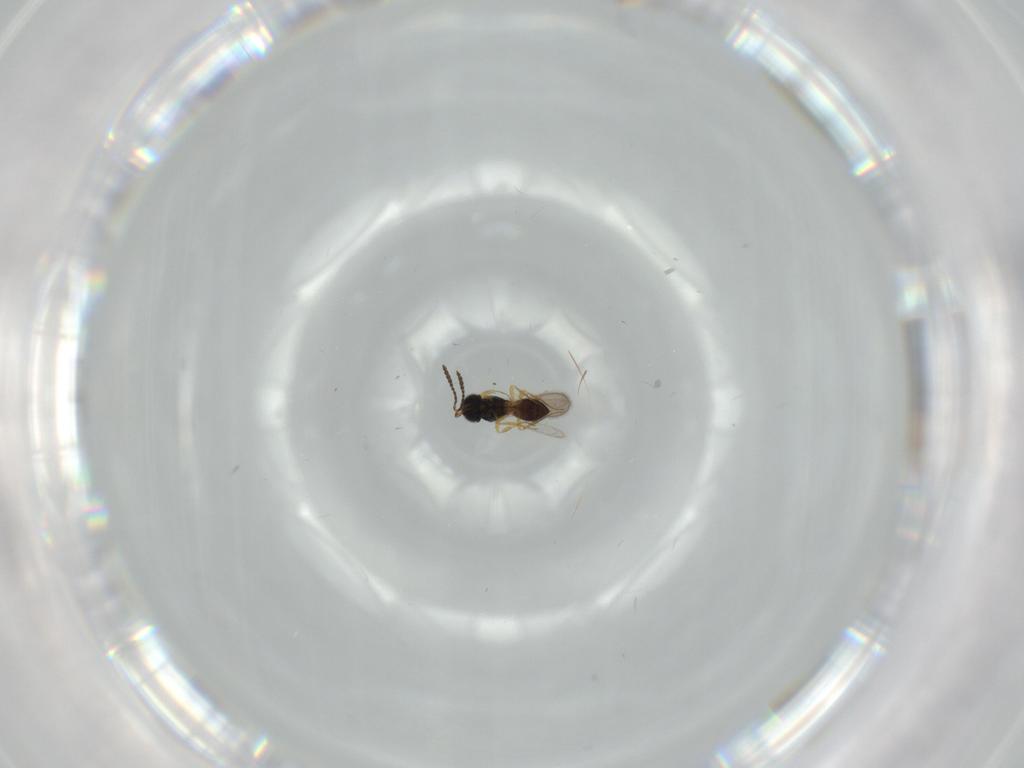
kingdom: Animalia
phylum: Arthropoda
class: Insecta
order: Hymenoptera
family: Scelionidae
